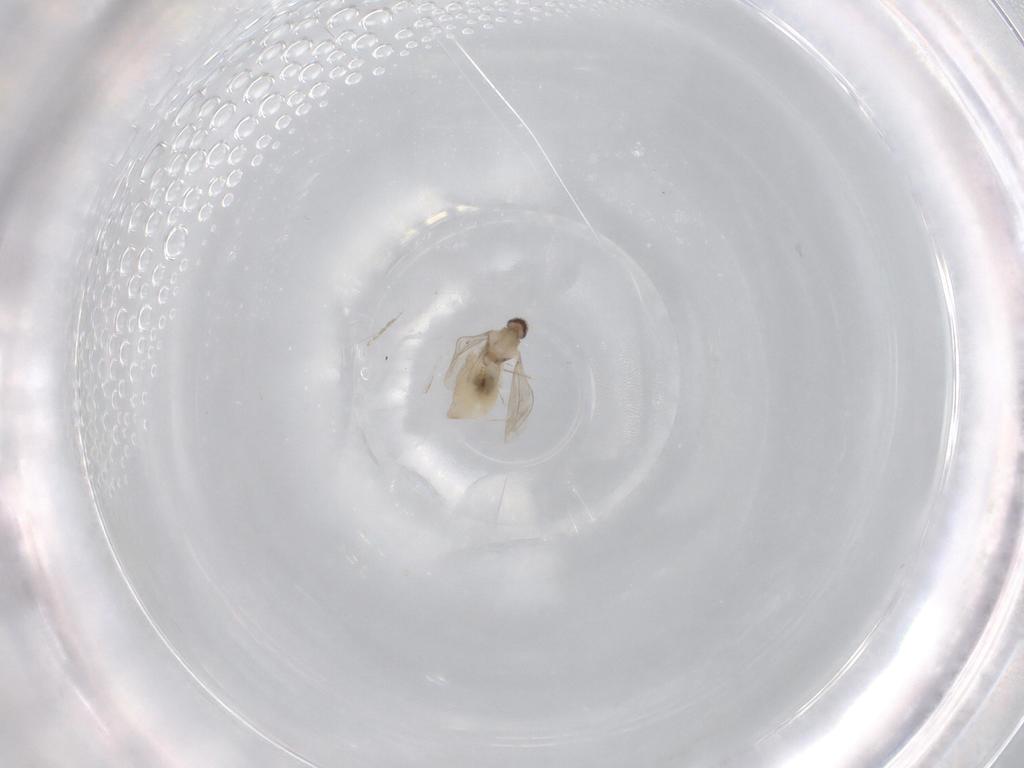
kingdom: Animalia
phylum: Arthropoda
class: Insecta
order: Diptera
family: Cecidomyiidae
